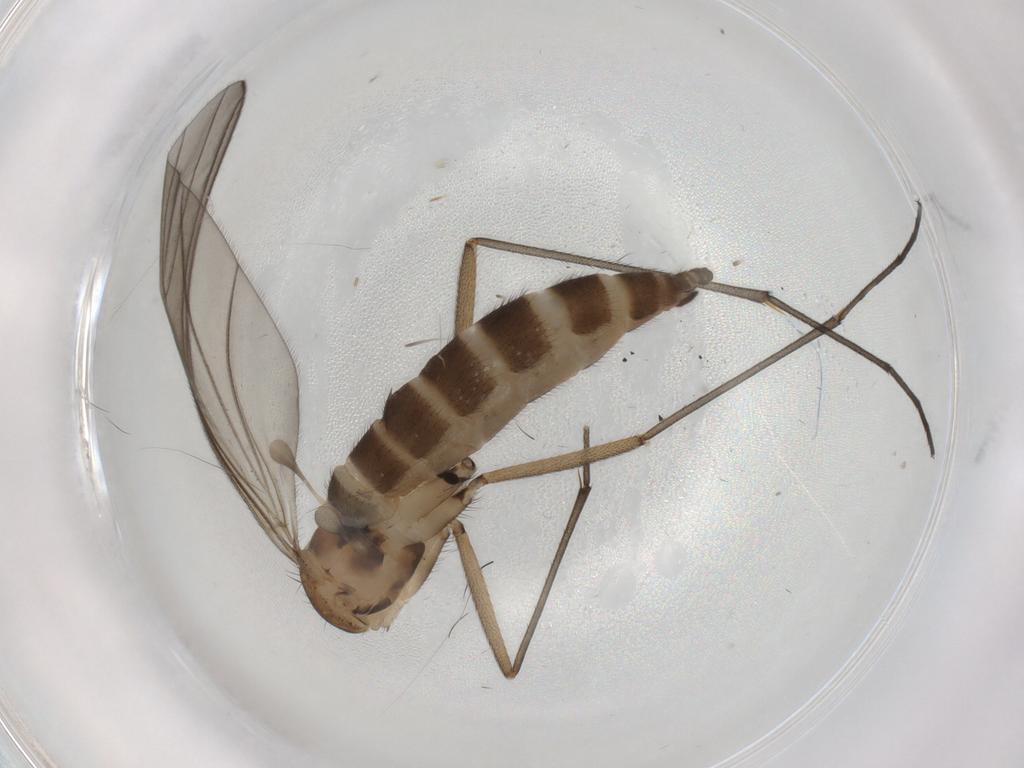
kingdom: Animalia
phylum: Arthropoda
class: Insecta
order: Diptera
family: Sciaridae
